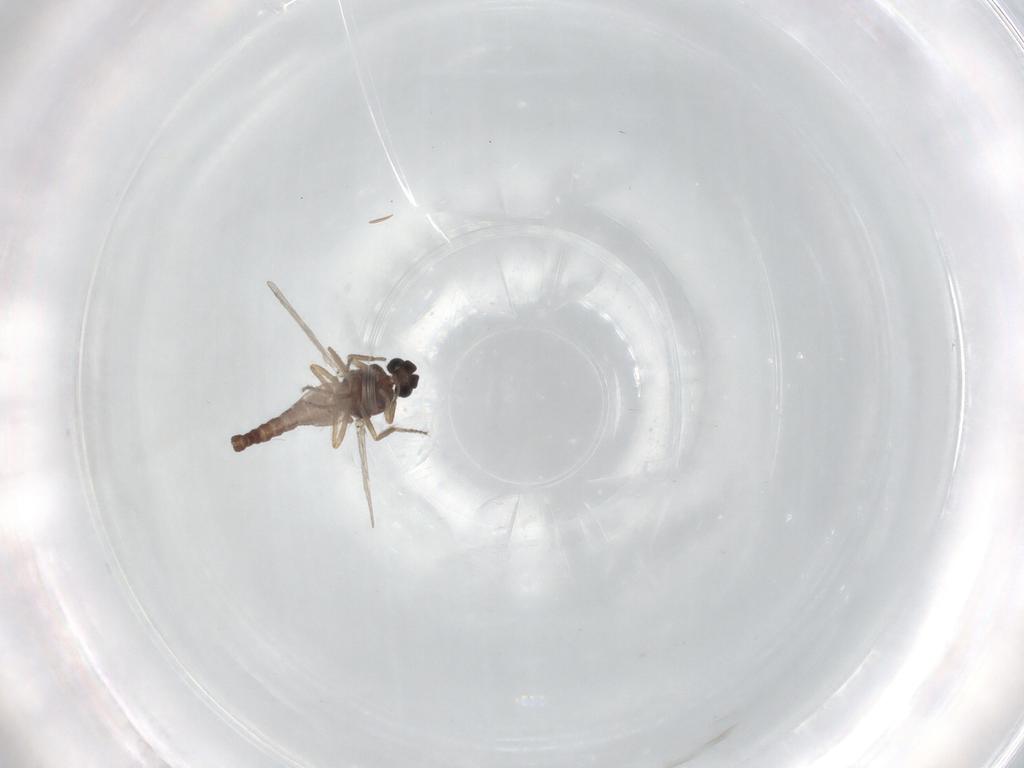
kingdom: Animalia
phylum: Arthropoda
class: Insecta
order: Diptera
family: Ceratopogonidae
